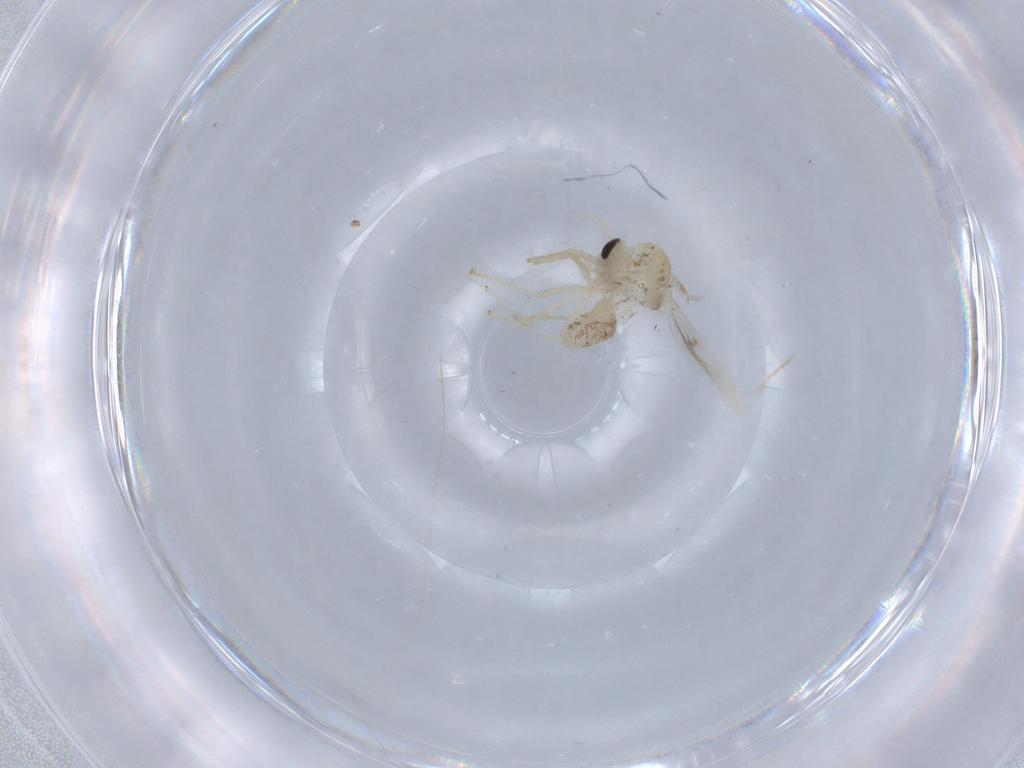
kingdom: Animalia
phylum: Arthropoda
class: Insecta
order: Diptera
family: Chironomidae
